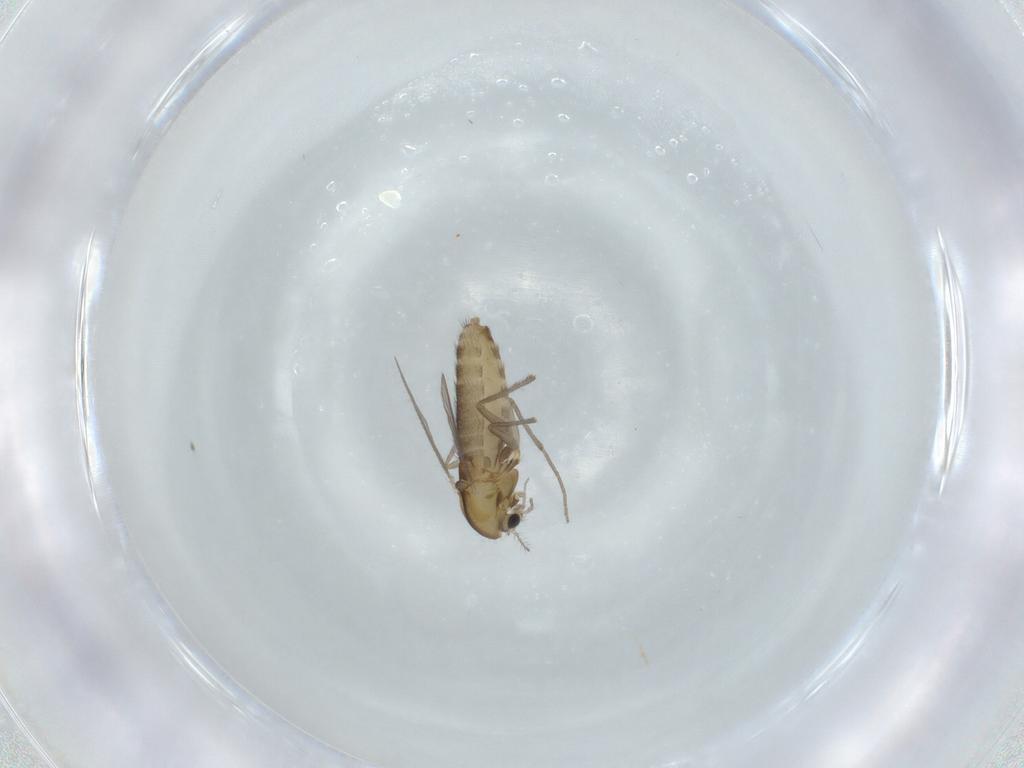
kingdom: Animalia
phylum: Arthropoda
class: Insecta
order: Diptera
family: Chironomidae
